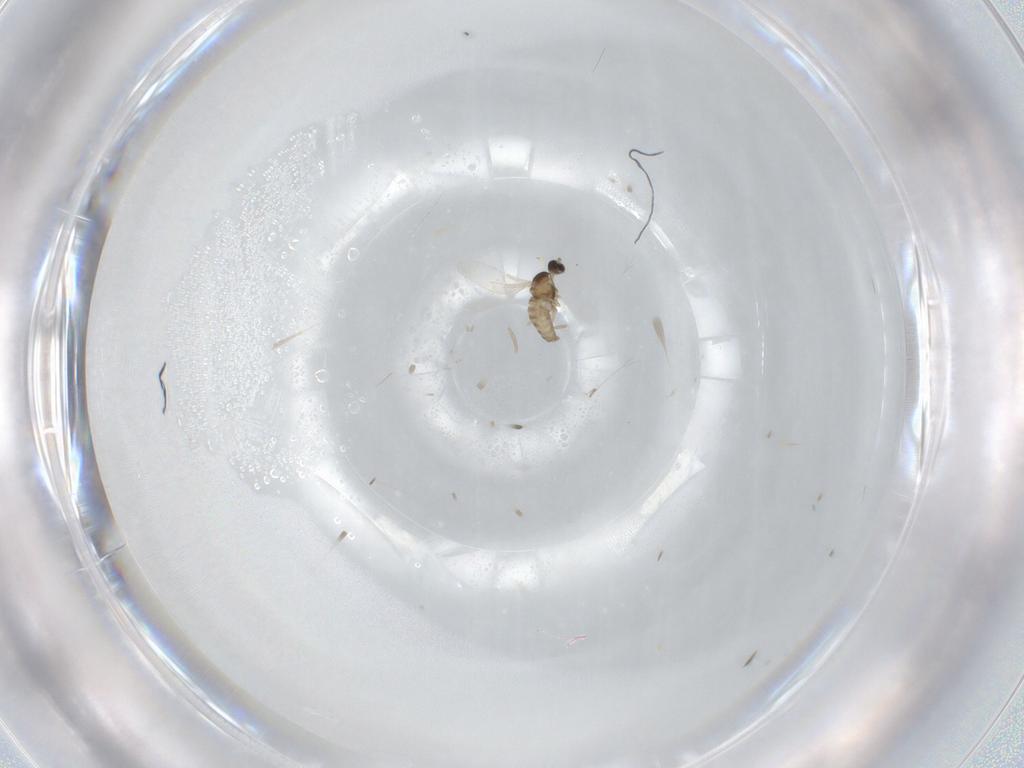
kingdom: Animalia
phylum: Arthropoda
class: Insecta
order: Diptera
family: Cecidomyiidae
